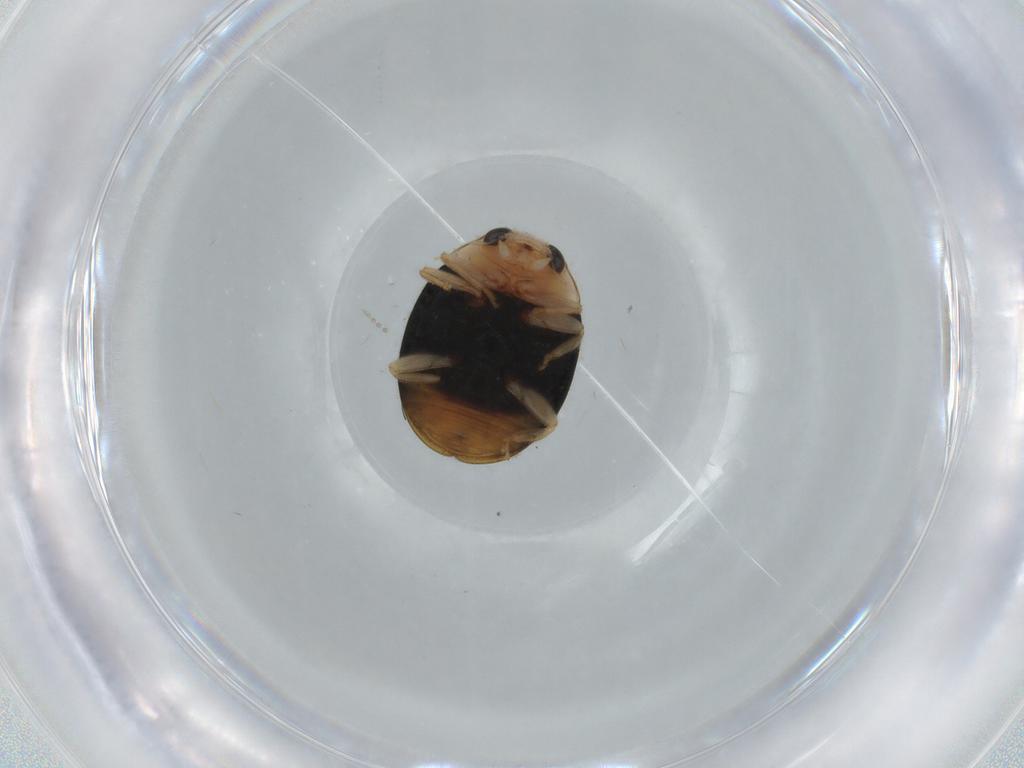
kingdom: Animalia
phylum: Arthropoda
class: Insecta
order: Coleoptera
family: Coccinellidae
